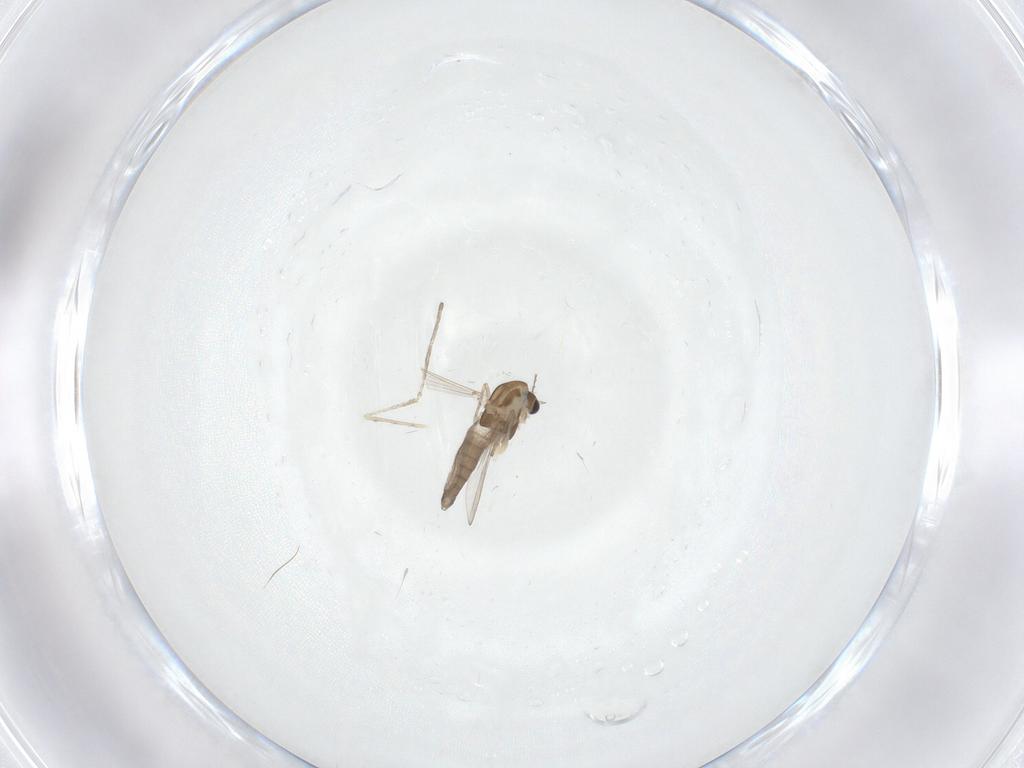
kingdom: Animalia
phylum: Arthropoda
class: Insecta
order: Diptera
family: Chironomidae
